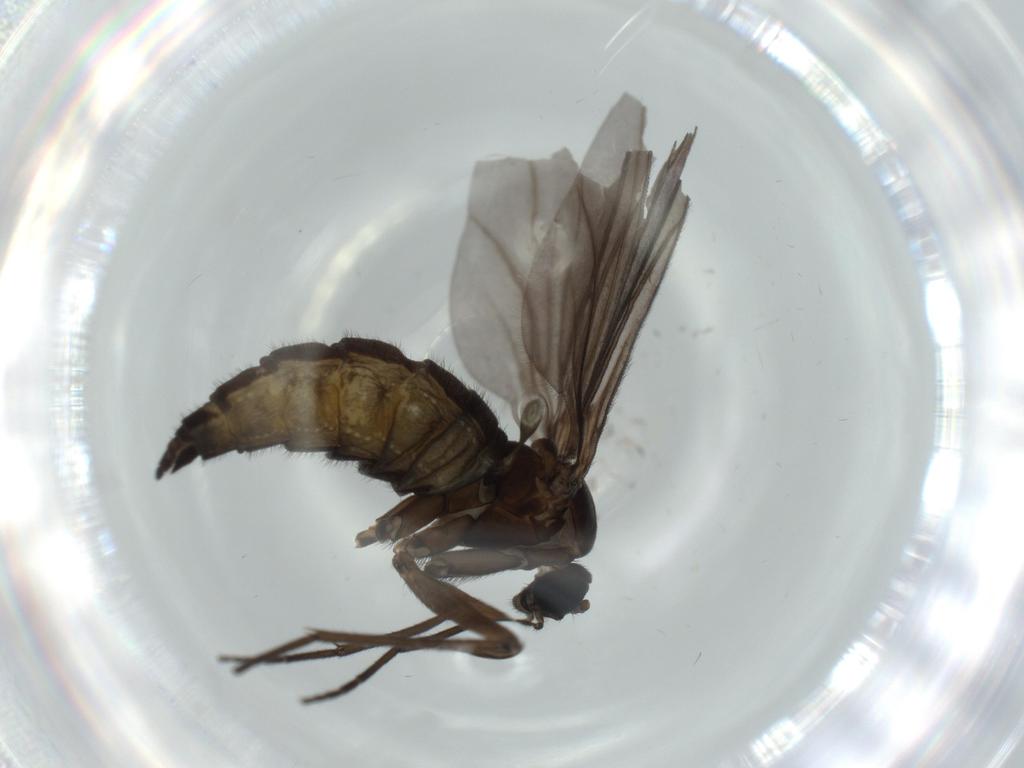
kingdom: Animalia
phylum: Arthropoda
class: Insecta
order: Diptera
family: Sciaridae
